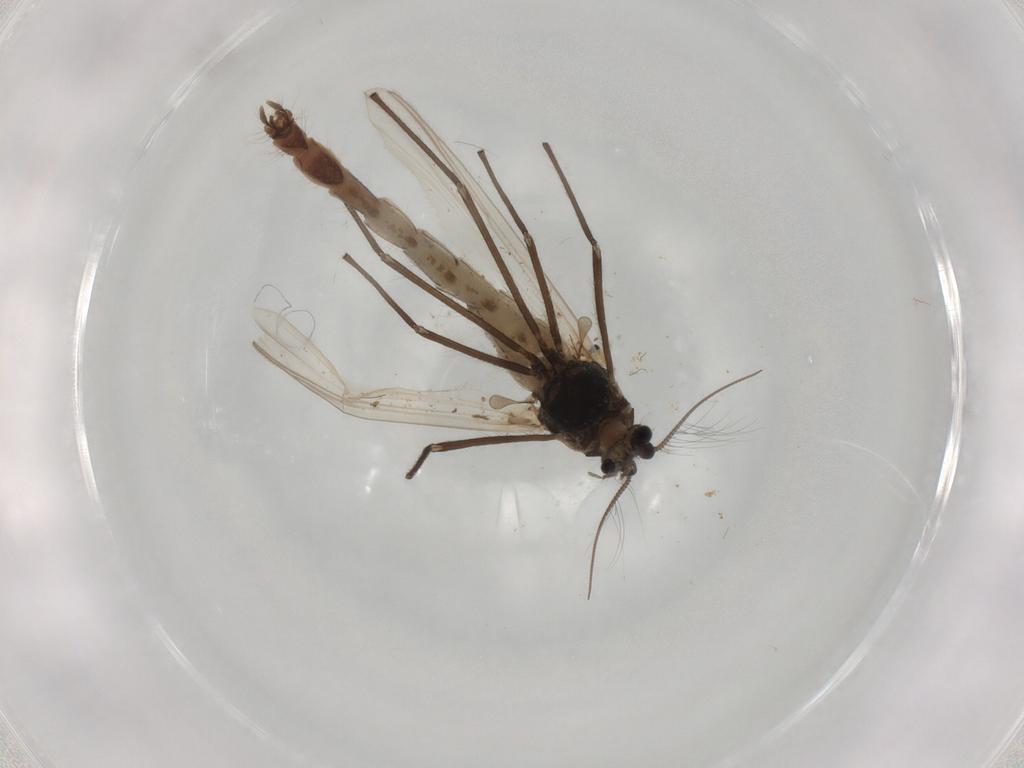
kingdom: Animalia
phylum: Arthropoda
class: Insecta
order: Diptera
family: Chironomidae
